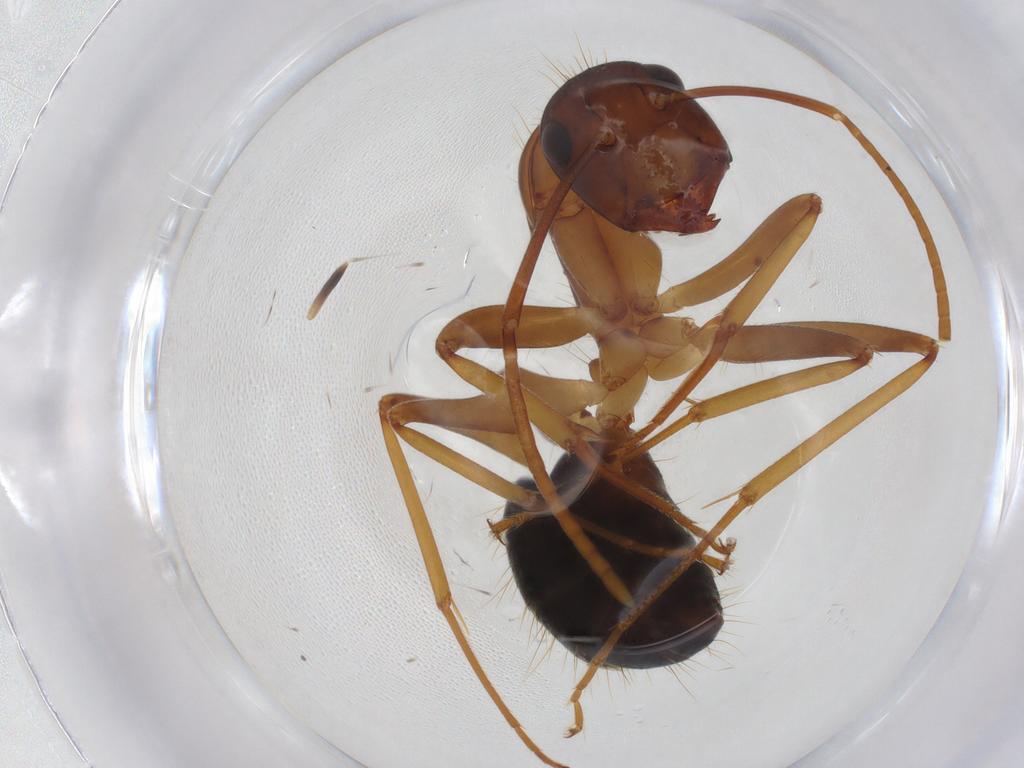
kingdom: Animalia
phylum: Arthropoda
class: Insecta
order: Hymenoptera
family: Formicidae
